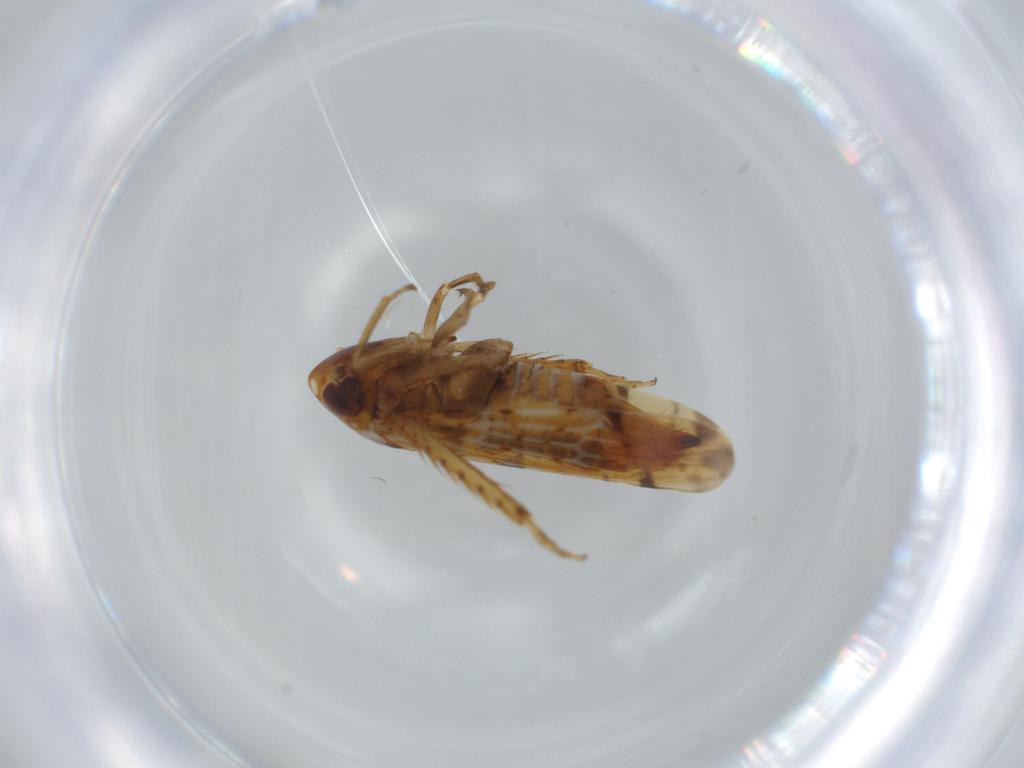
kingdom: Animalia
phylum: Arthropoda
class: Insecta
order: Hemiptera
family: Cicadellidae
